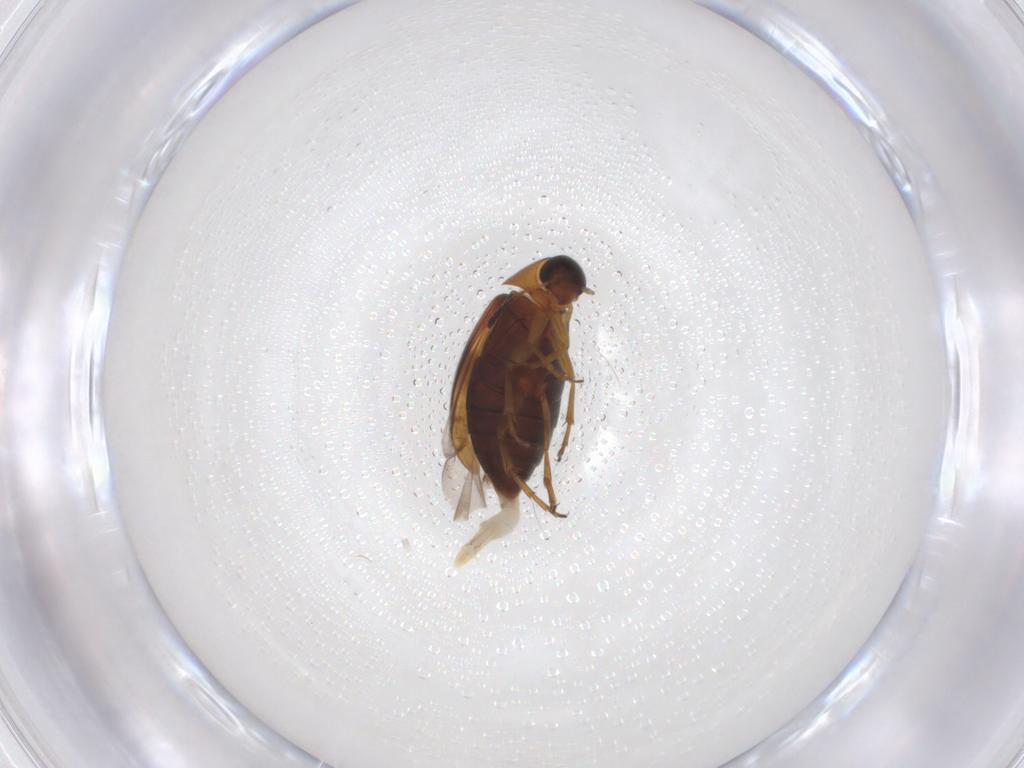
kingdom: Animalia
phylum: Arthropoda
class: Insecta
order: Coleoptera
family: Scraptiidae
